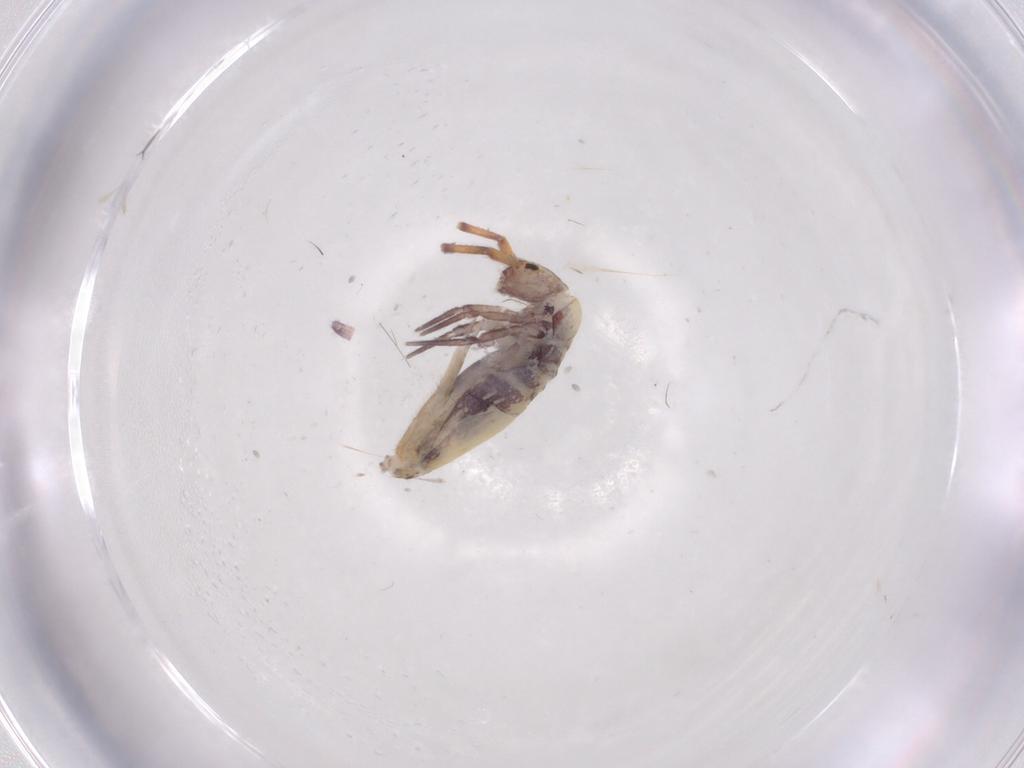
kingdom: Animalia
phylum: Arthropoda
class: Collembola
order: Entomobryomorpha
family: Entomobryidae
